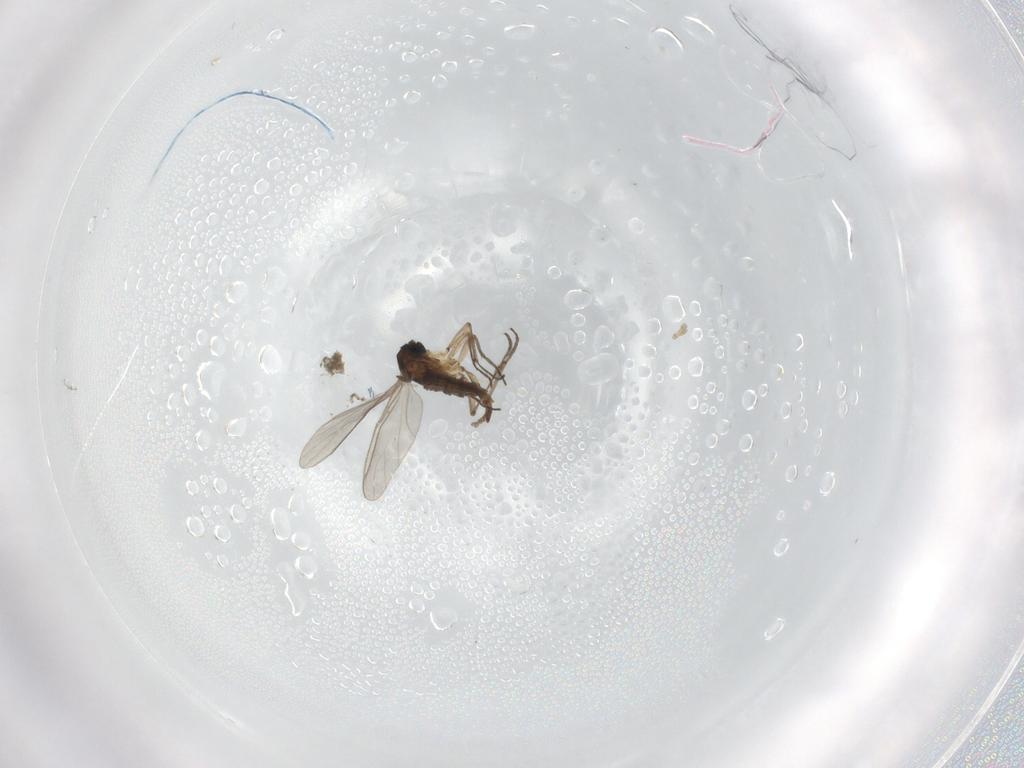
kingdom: Animalia
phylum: Arthropoda
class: Insecta
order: Diptera
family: Sciaridae
